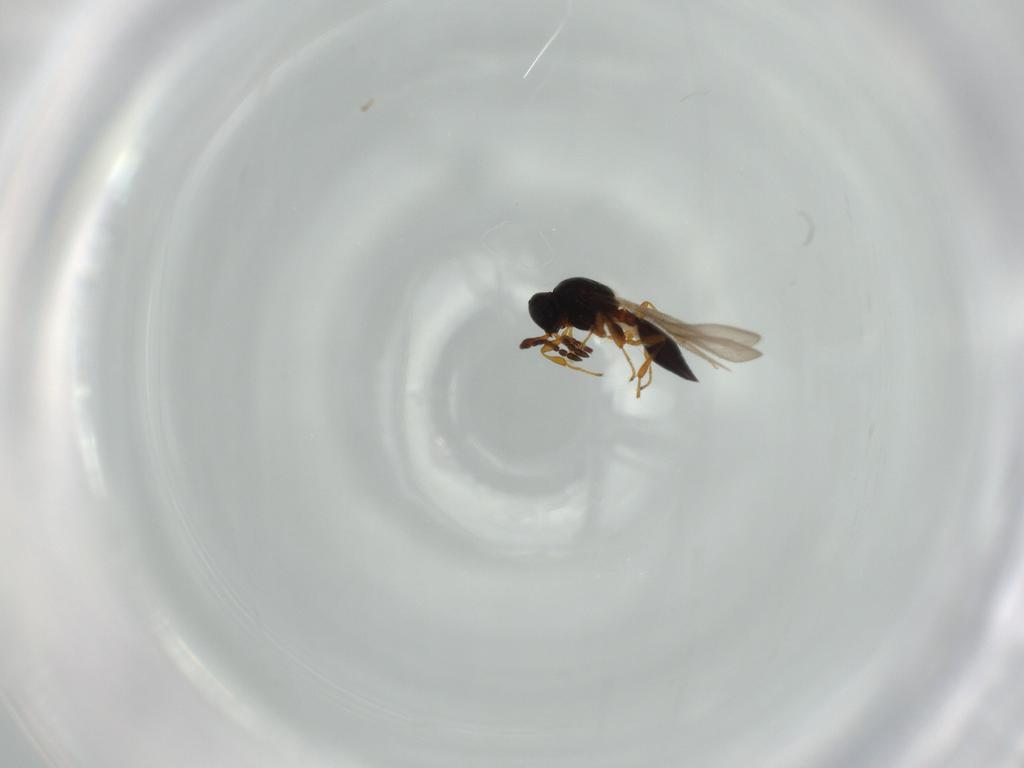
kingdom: Animalia
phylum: Arthropoda
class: Insecta
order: Hymenoptera
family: Platygastridae
